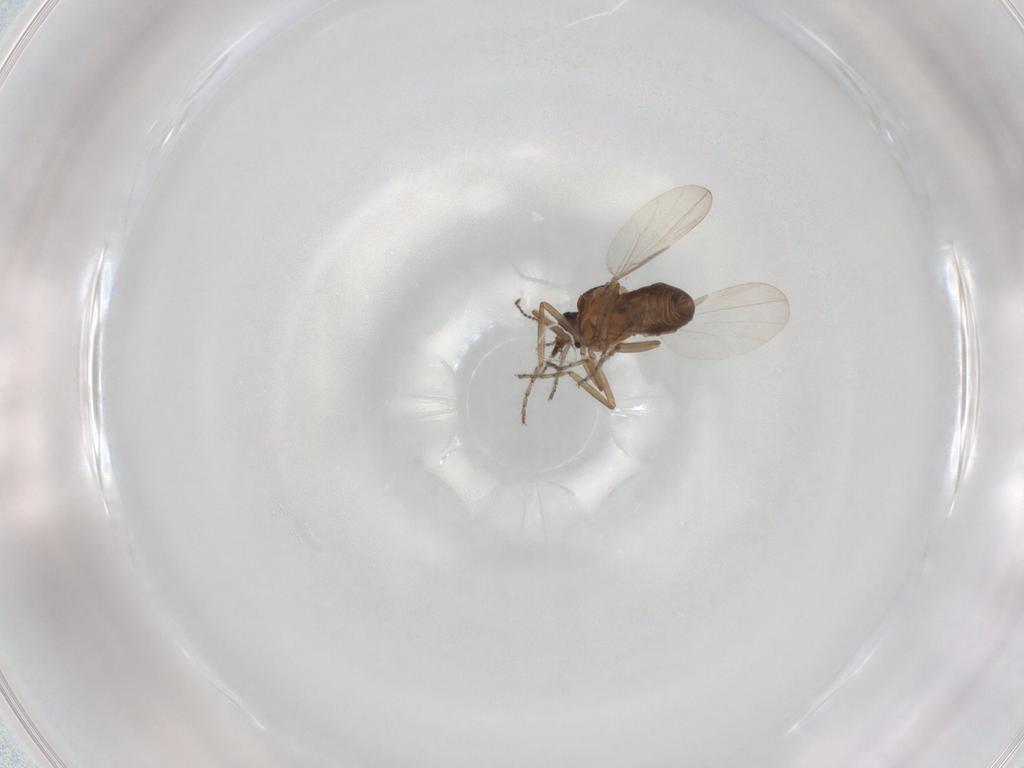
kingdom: Animalia
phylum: Arthropoda
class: Insecta
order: Diptera
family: Ceratopogonidae
